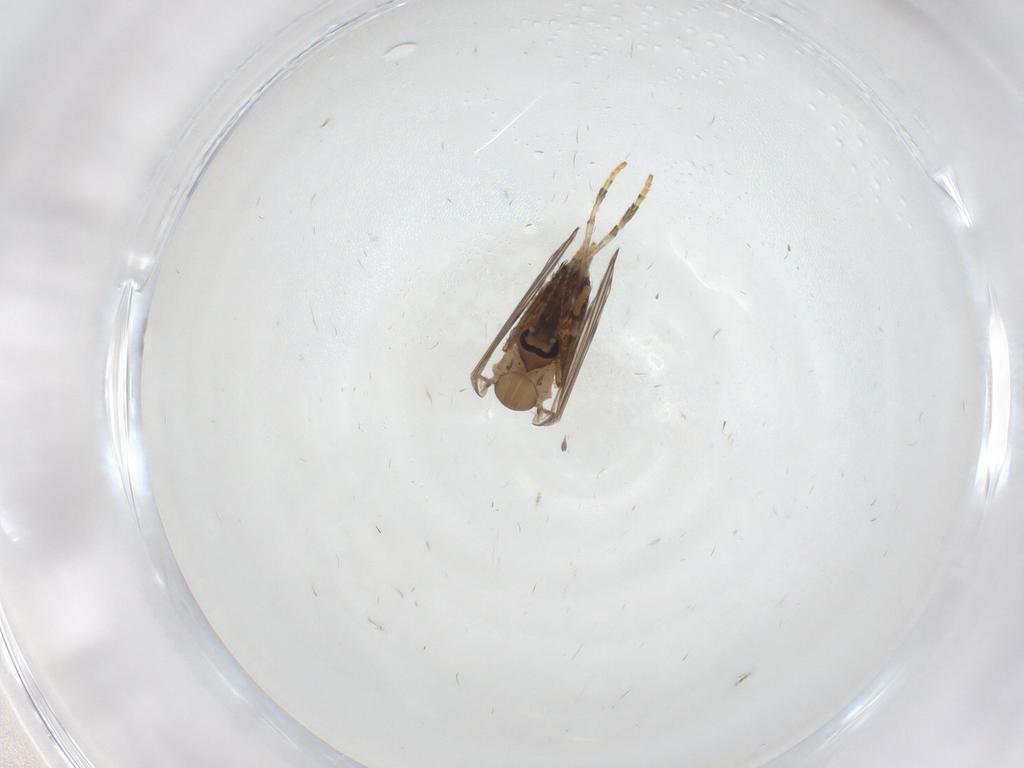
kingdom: Animalia
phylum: Arthropoda
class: Insecta
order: Diptera
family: Psychodidae
